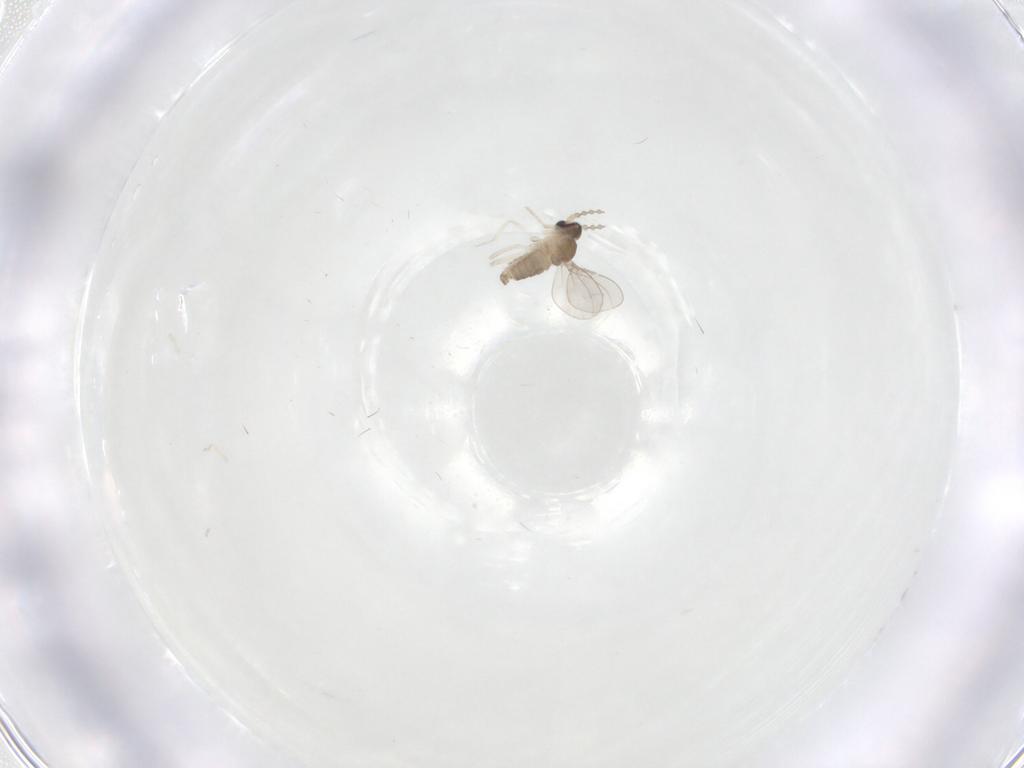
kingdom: Animalia
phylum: Arthropoda
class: Insecta
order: Diptera
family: Cecidomyiidae
